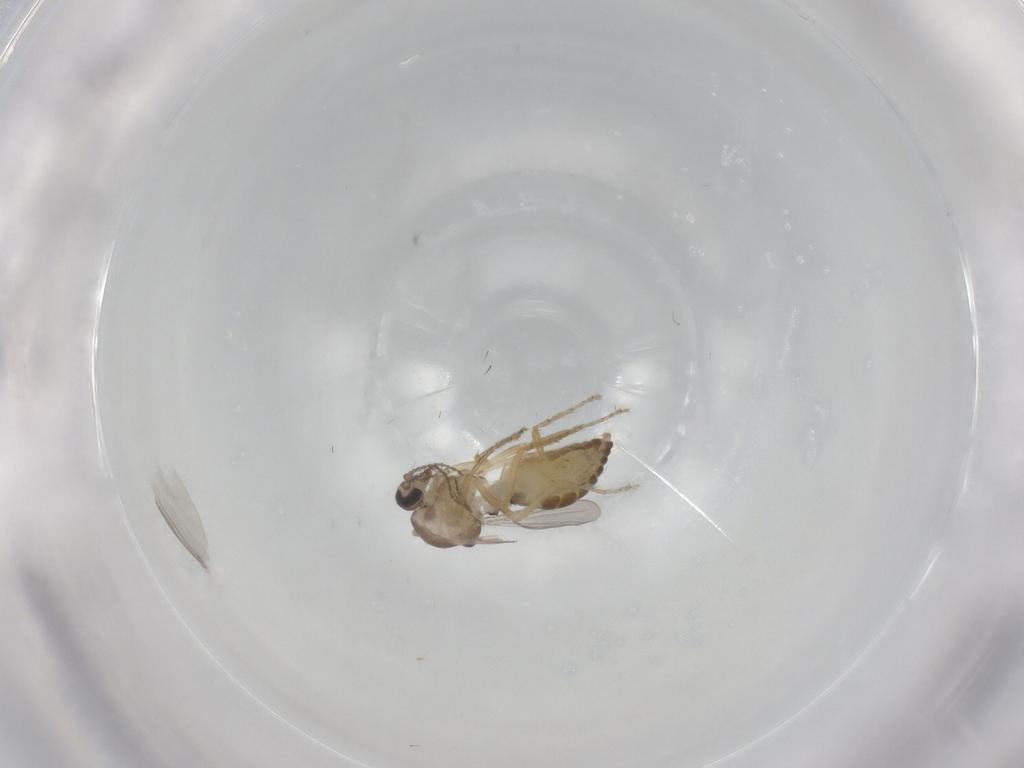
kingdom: Animalia
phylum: Arthropoda
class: Insecta
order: Diptera
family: Ceratopogonidae
